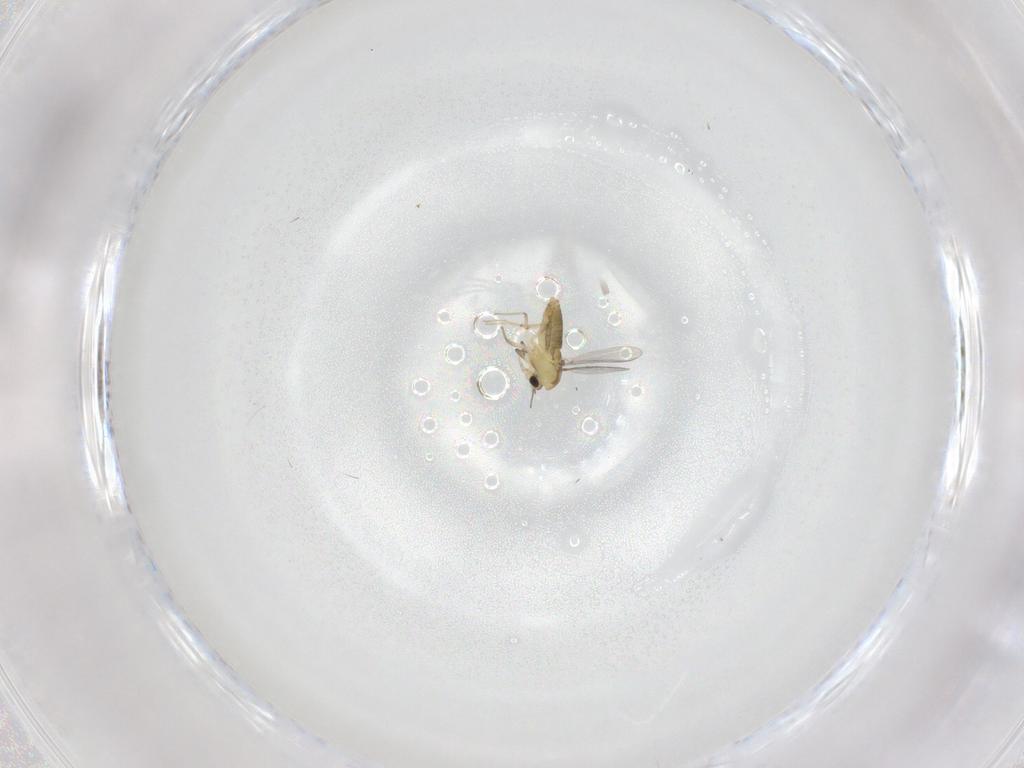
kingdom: Animalia
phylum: Arthropoda
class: Insecta
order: Diptera
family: Chironomidae
